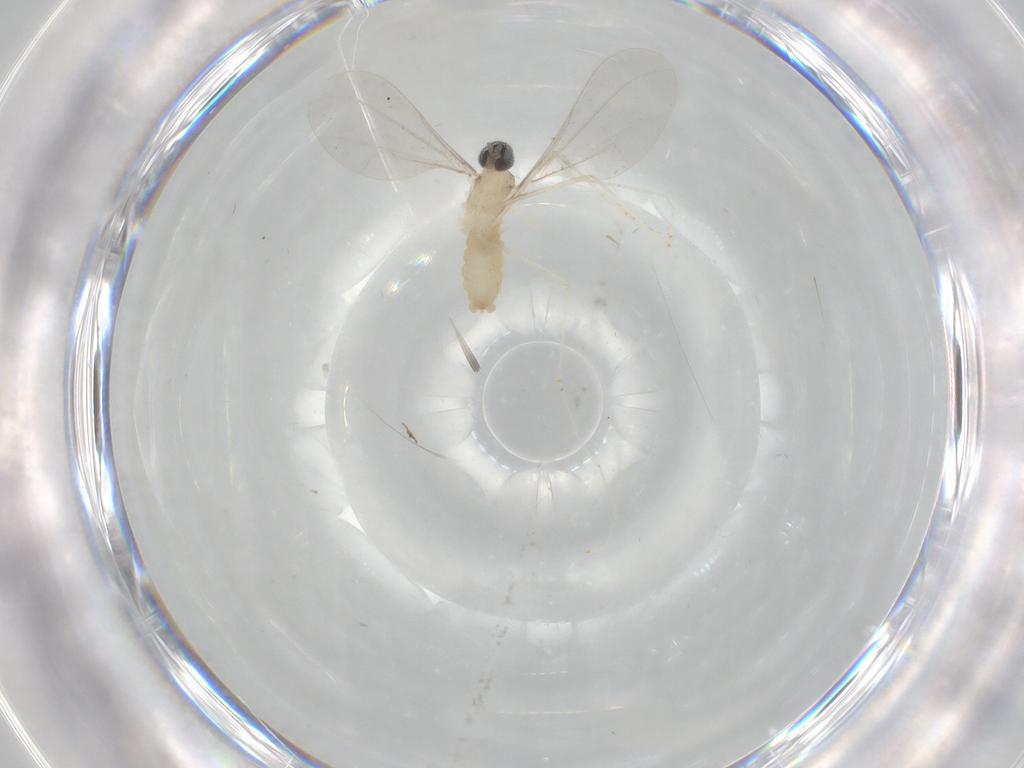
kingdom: Animalia
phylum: Arthropoda
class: Insecta
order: Diptera
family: Cecidomyiidae
